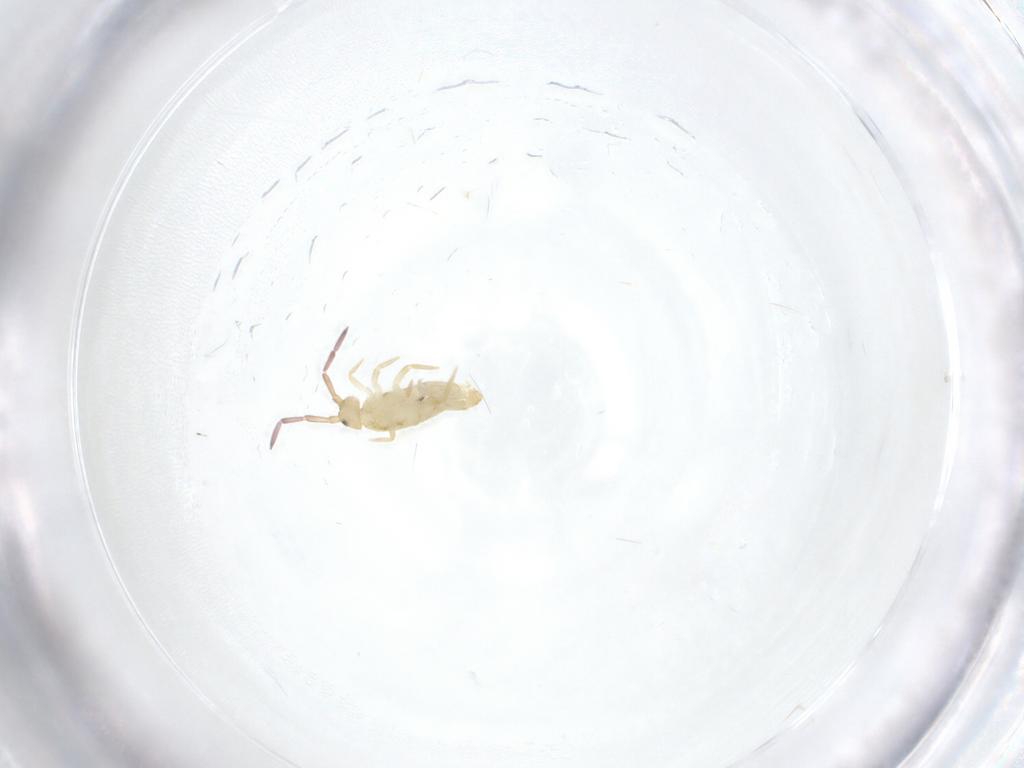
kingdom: Animalia
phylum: Arthropoda
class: Collembola
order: Entomobryomorpha
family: Entomobryidae
